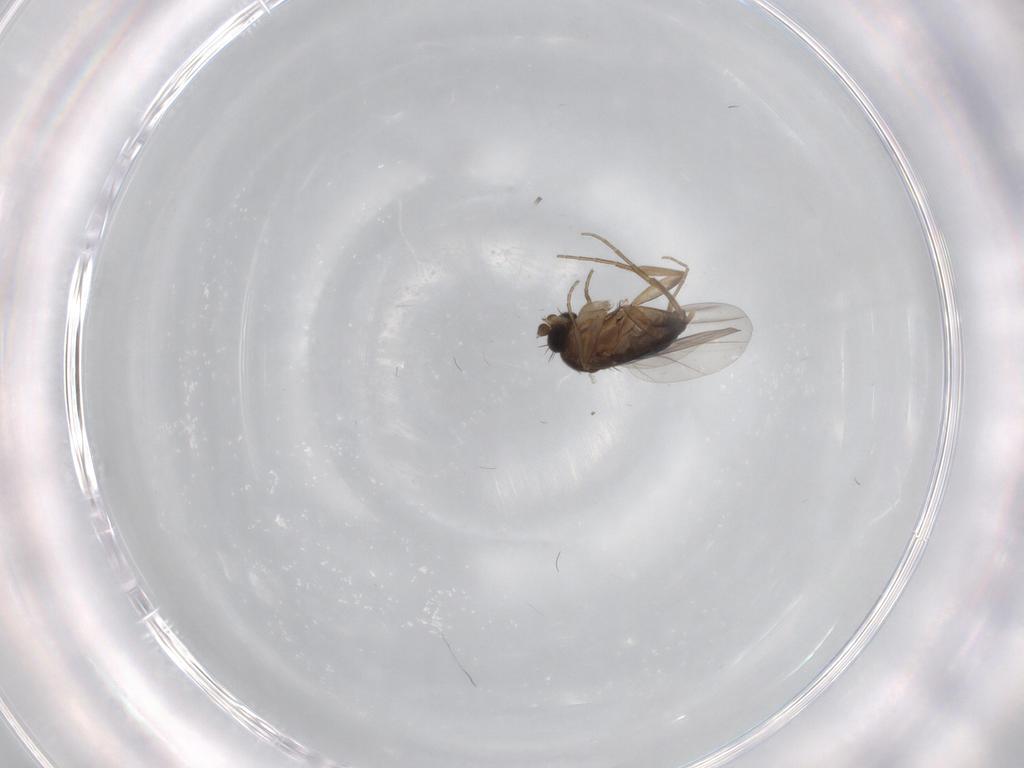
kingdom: Animalia
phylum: Arthropoda
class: Insecta
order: Diptera
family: Phoridae
